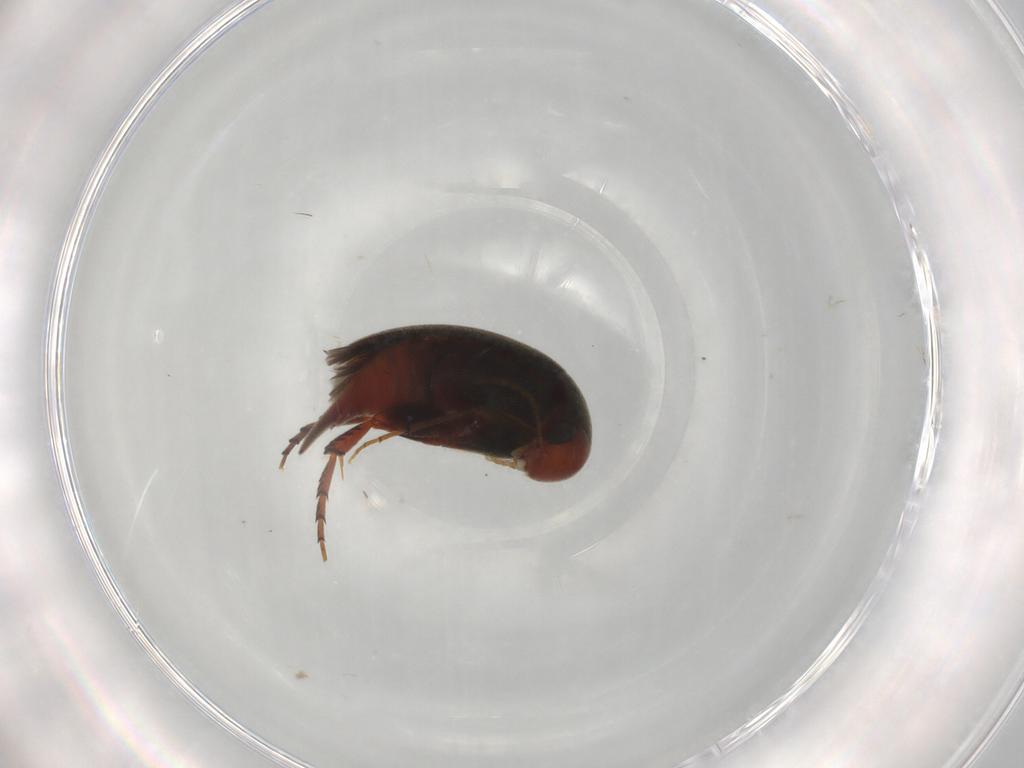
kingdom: Animalia
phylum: Arthropoda
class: Insecta
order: Coleoptera
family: Mordellidae
